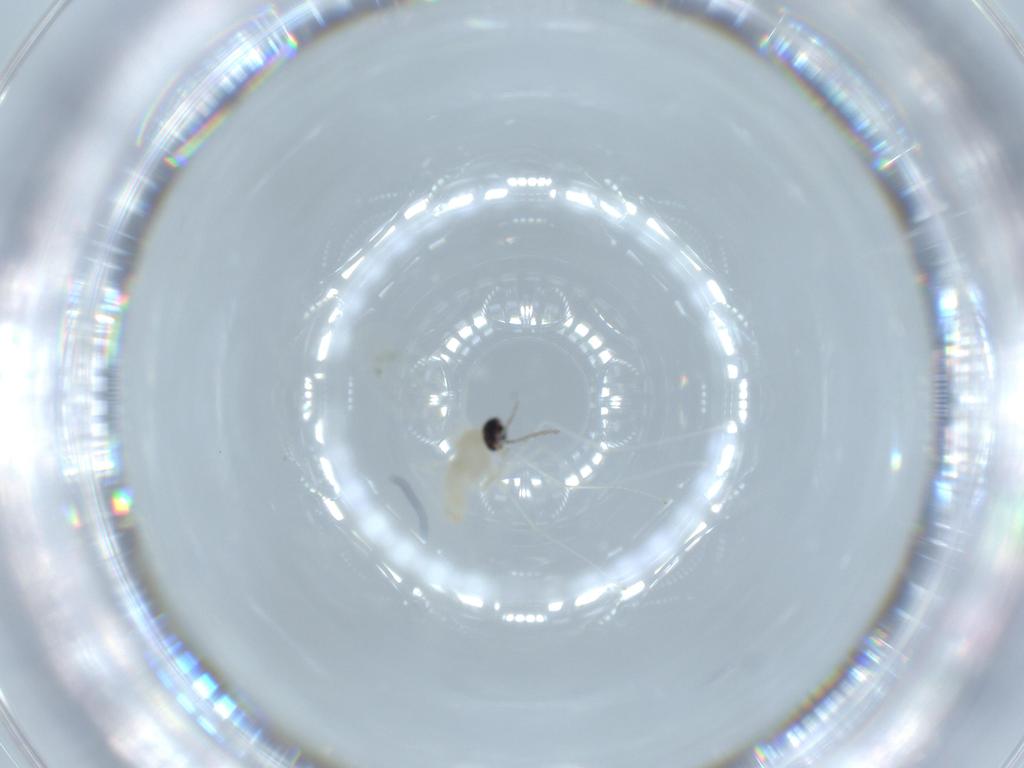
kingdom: Animalia
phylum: Arthropoda
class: Insecta
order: Diptera
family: Cecidomyiidae
